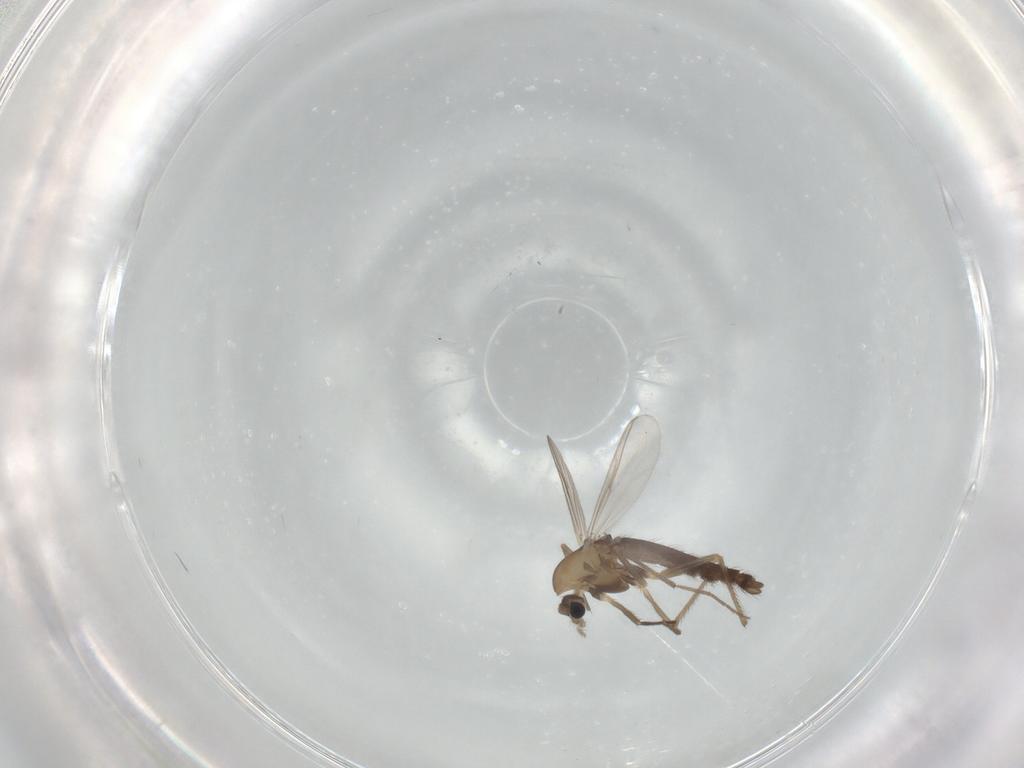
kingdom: Animalia
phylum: Arthropoda
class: Insecta
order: Diptera
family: Chironomidae
